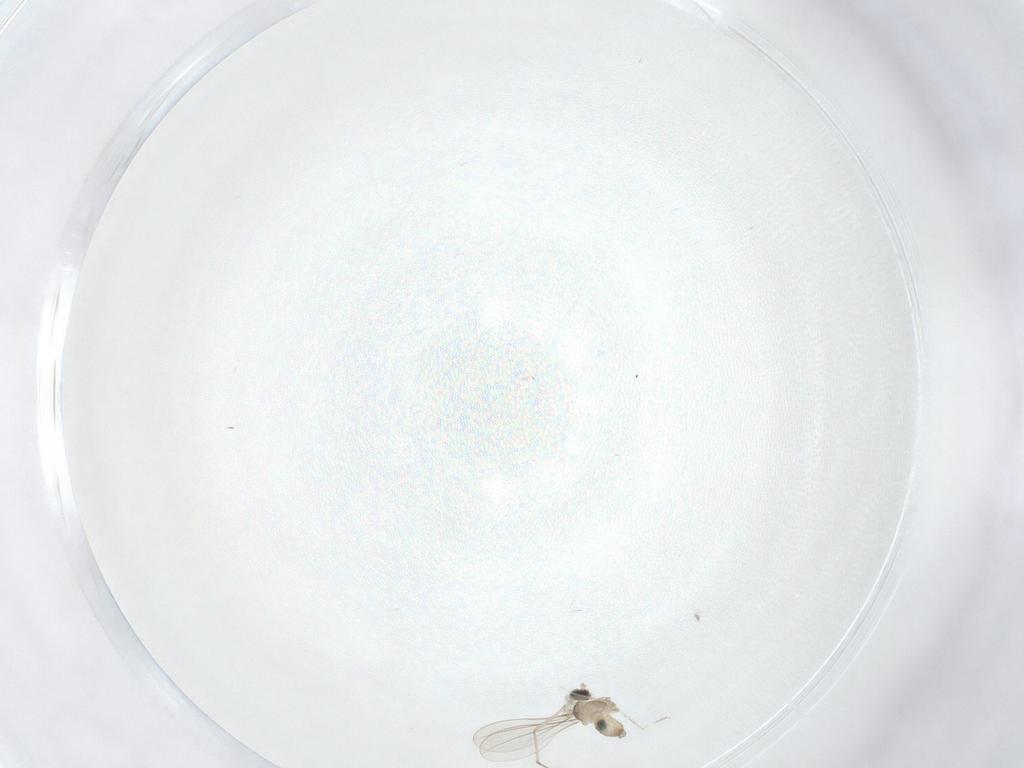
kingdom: Animalia
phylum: Arthropoda
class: Insecta
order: Diptera
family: Cecidomyiidae
